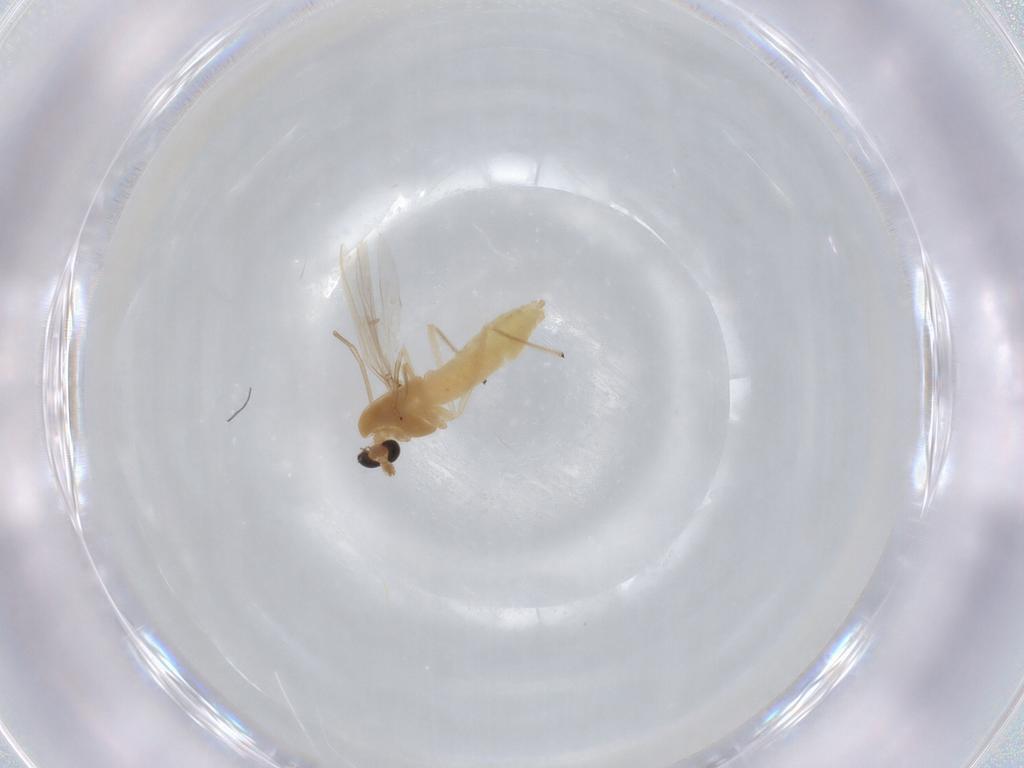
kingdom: Animalia
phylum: Arthropoda
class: Insecta
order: Diptera
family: Chironomidae
